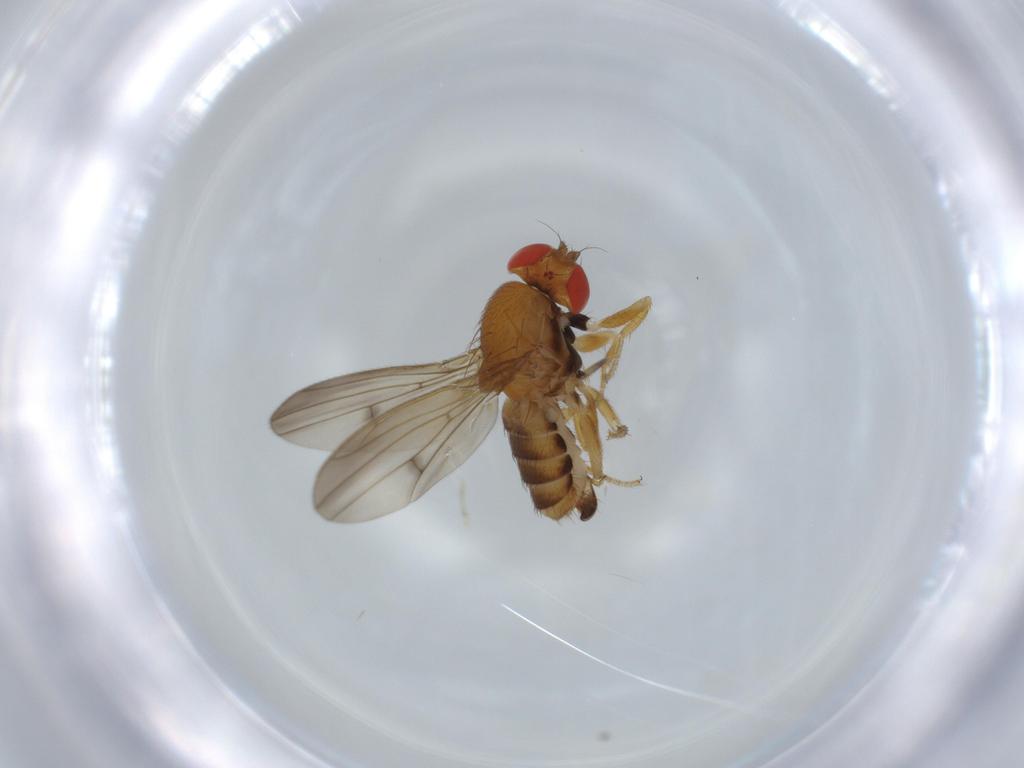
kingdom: Animalia
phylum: Arthropoda
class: Insecta
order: Diptera
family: Drosophilidae
